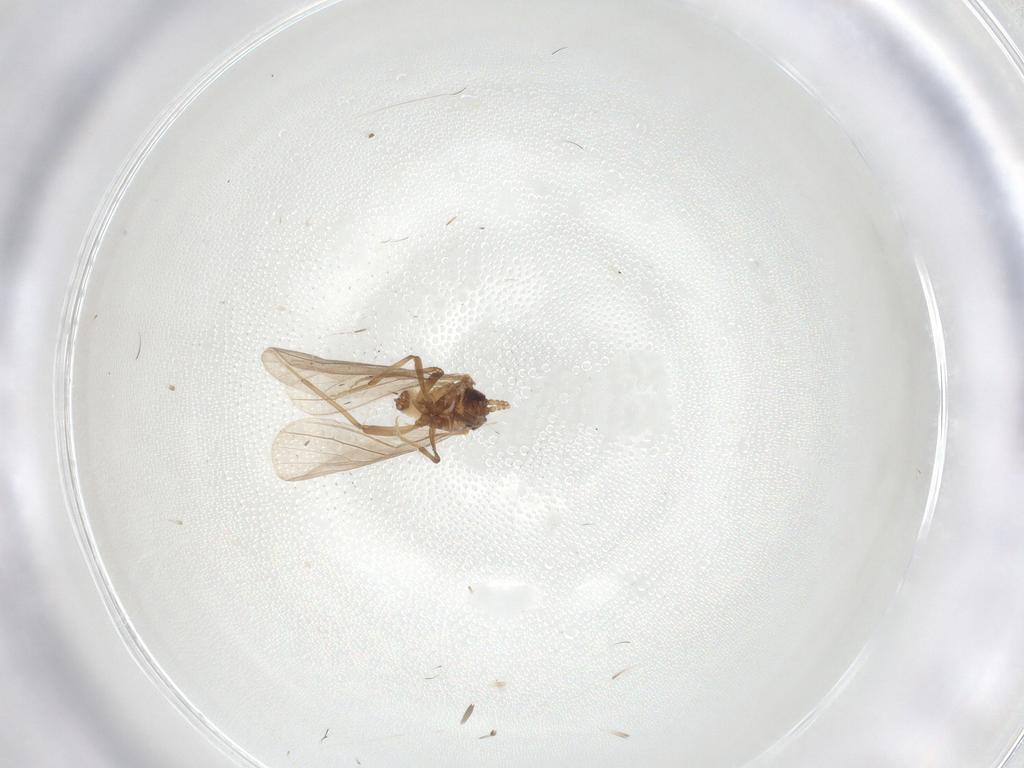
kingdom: Animalia
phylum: Arthropoda
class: Insecta
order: Neuroptera
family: Coniopterygidae
